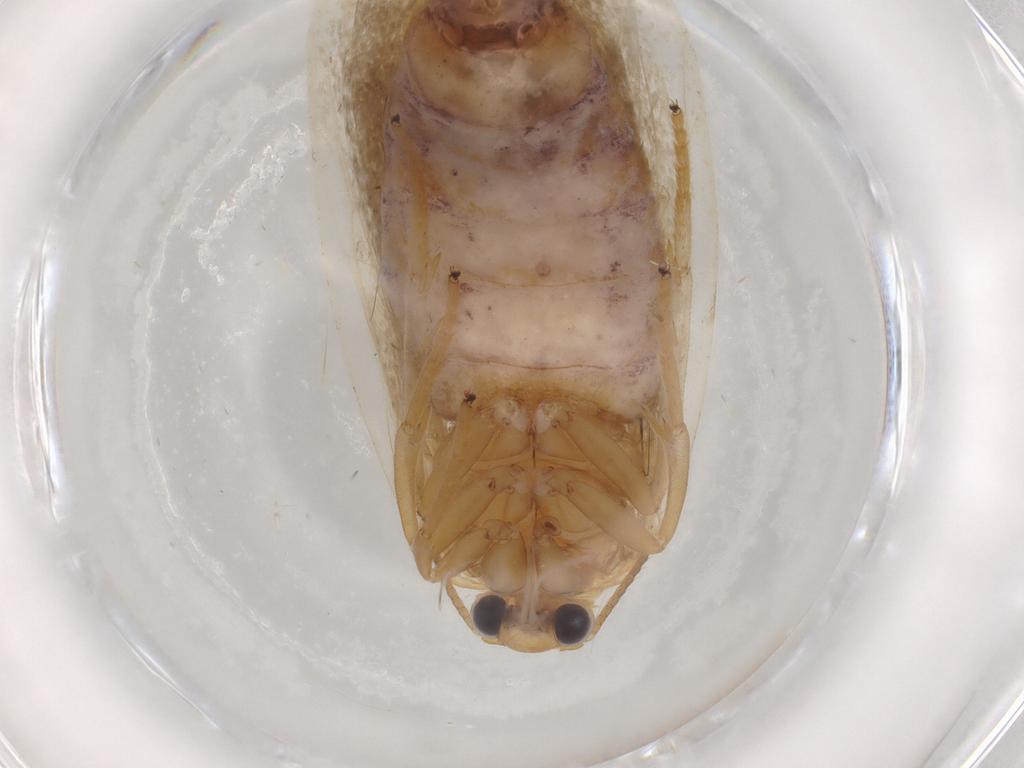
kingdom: Animalia
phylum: Arthropoda
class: Insecta
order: Lepidoptera
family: Erebidae
